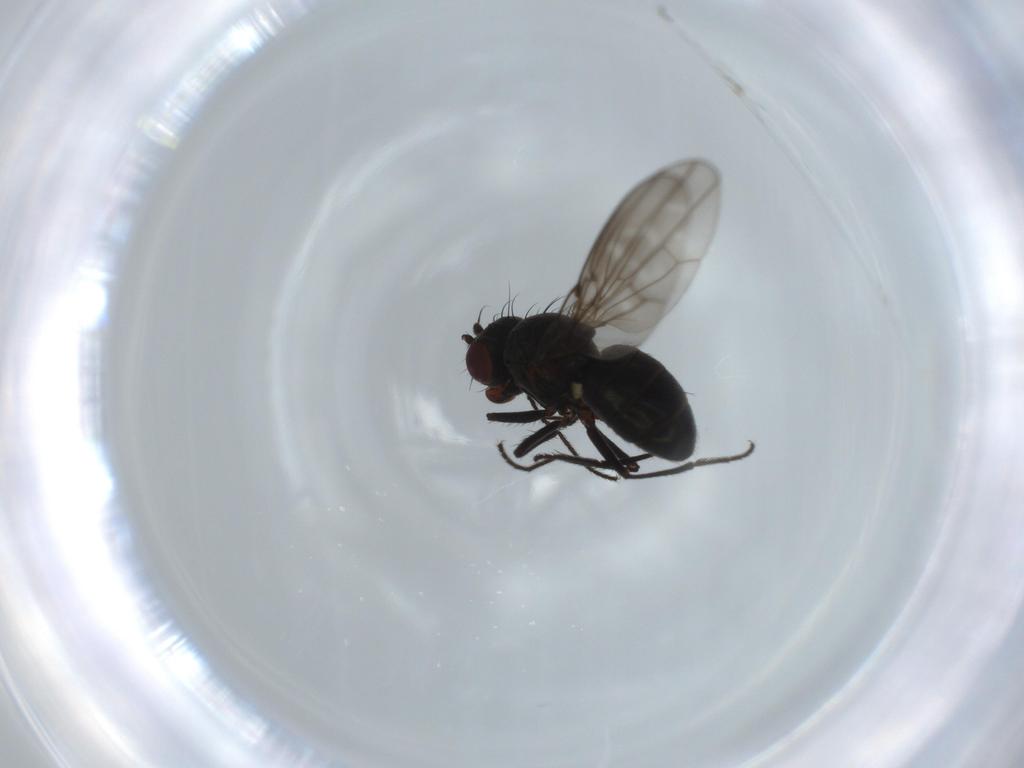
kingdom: Animalia
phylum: Arthropoda
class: Insecta
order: Diptera
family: Ephydridae
